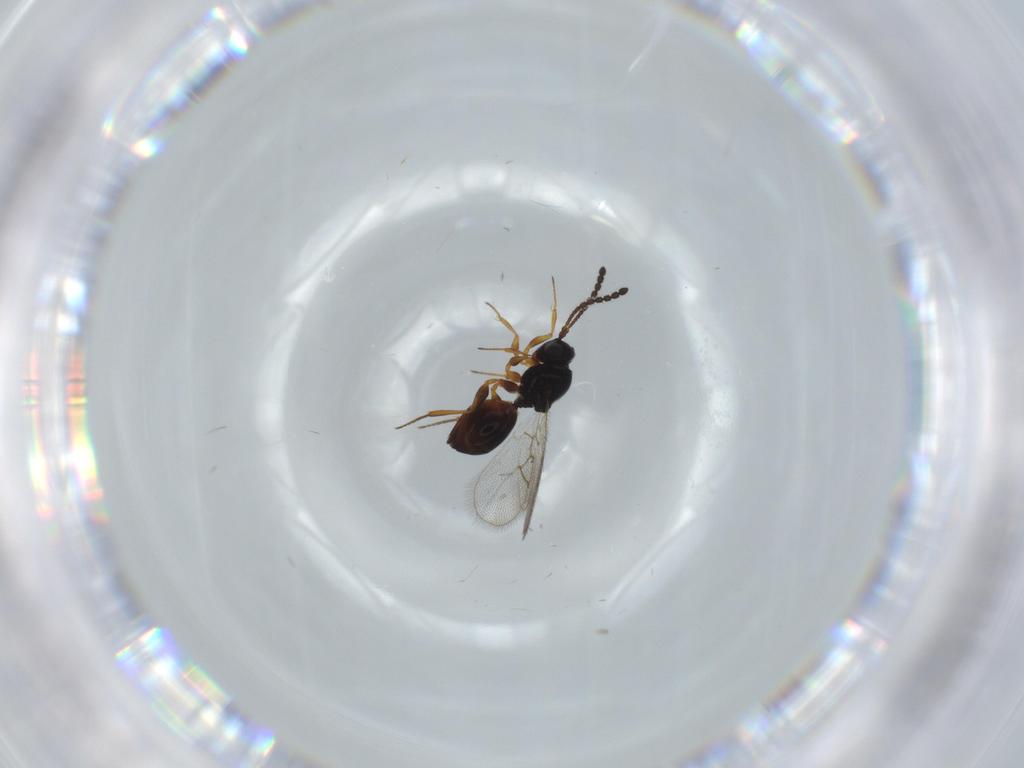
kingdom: Animalia
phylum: Arthropoda
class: Insecta
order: Hymenoptera
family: Figitidae
